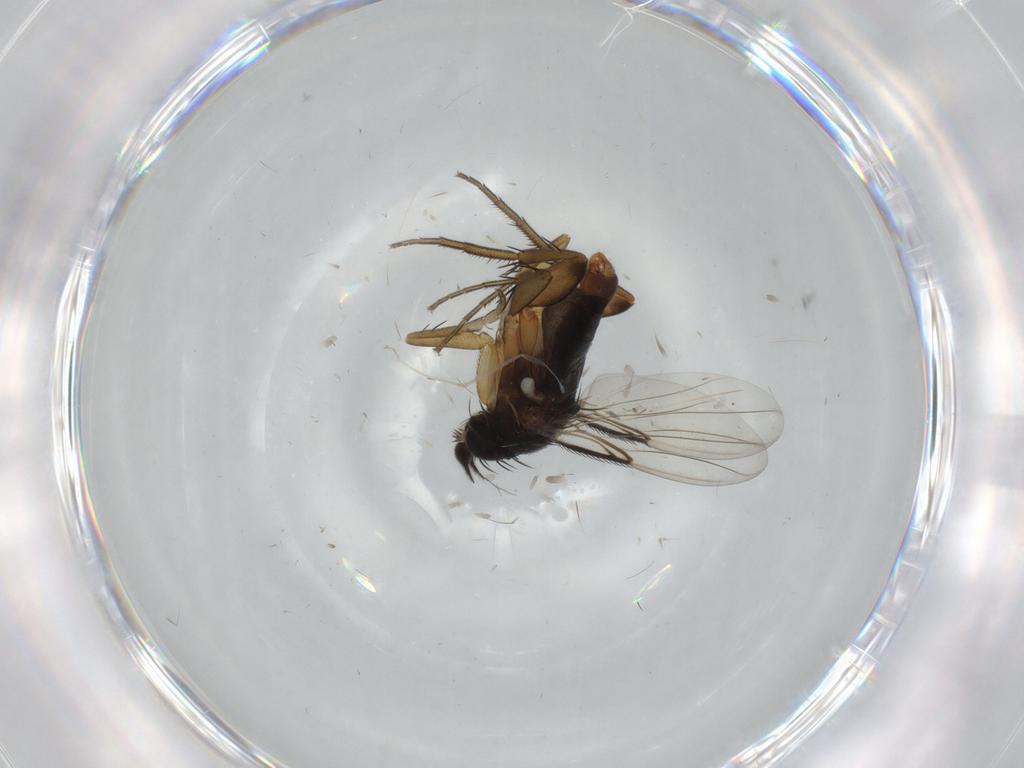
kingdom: Animalia
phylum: Arthropoda
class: Insecta
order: Diptera
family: Phoridae
